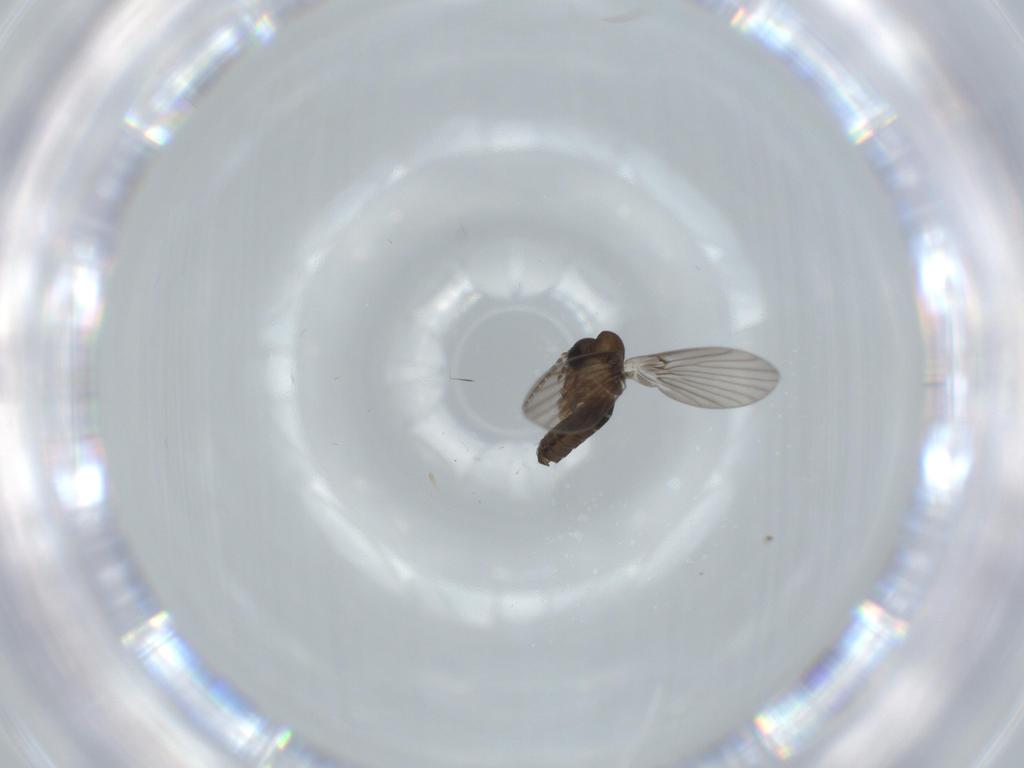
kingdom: Animalia
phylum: Arthropoda
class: Insecta
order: Diptera
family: Psychodidae
